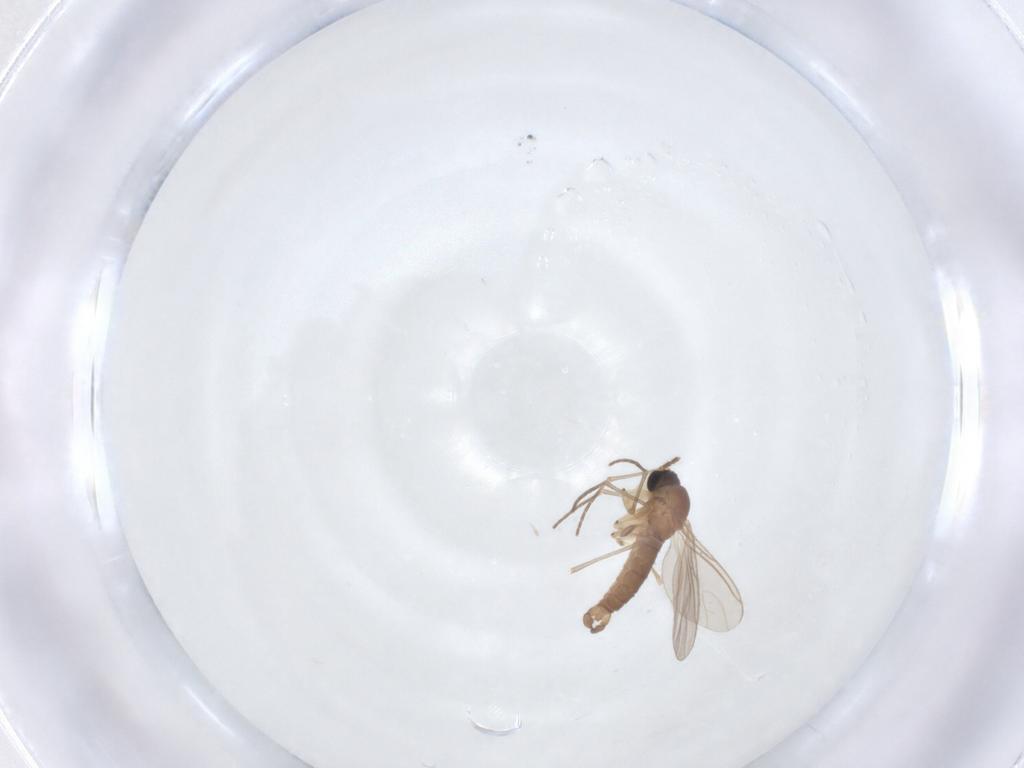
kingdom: Animalia
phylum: Arthropoda
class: Insecta
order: Diptera
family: Sciaridae
